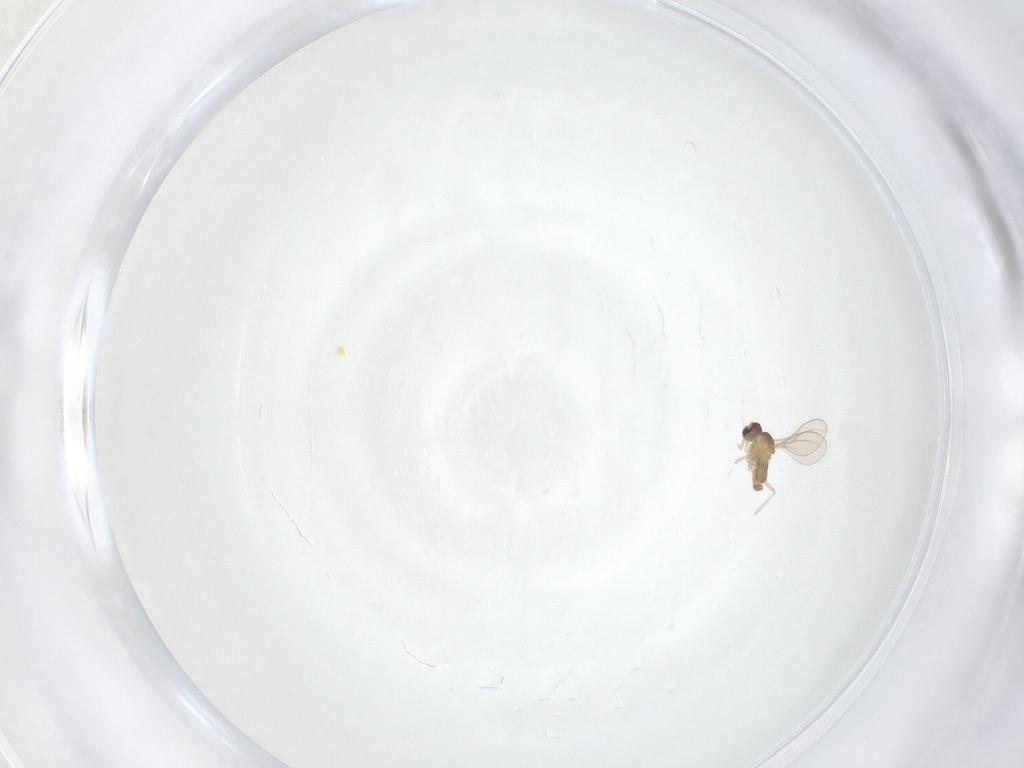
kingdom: Animalia
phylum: Arthropoda
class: Insecta
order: Diptera
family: Cecidomyiidae
